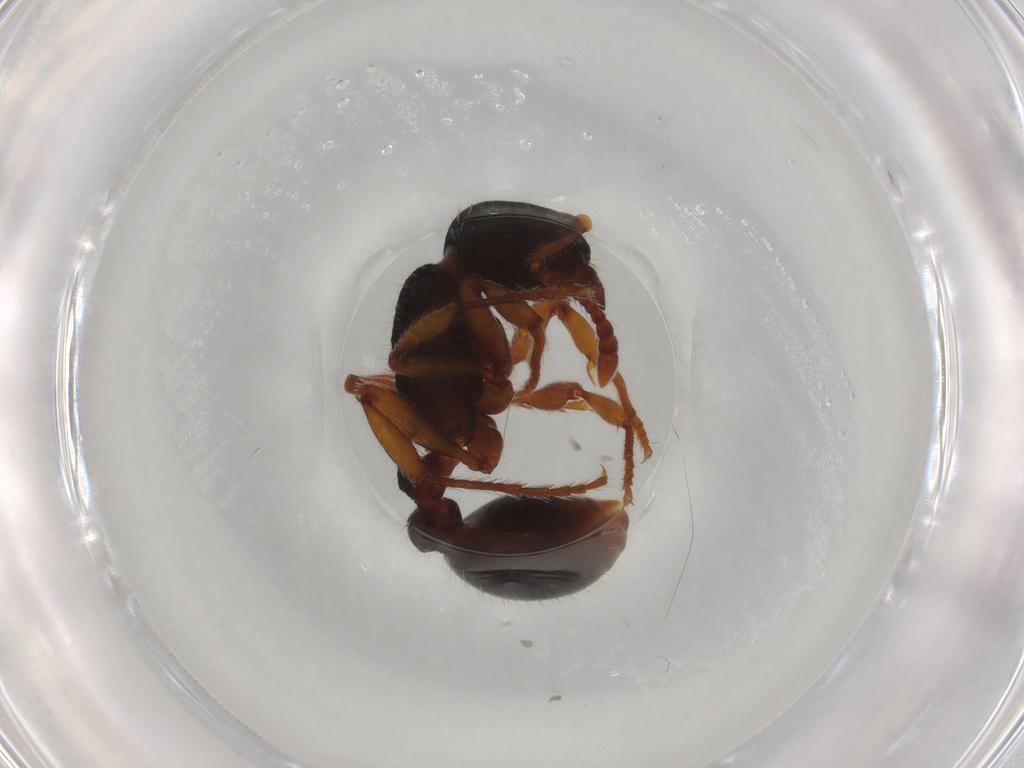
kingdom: Animalia
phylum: Arthropoda
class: Insecta
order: Hymenoptera
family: Formicidae
